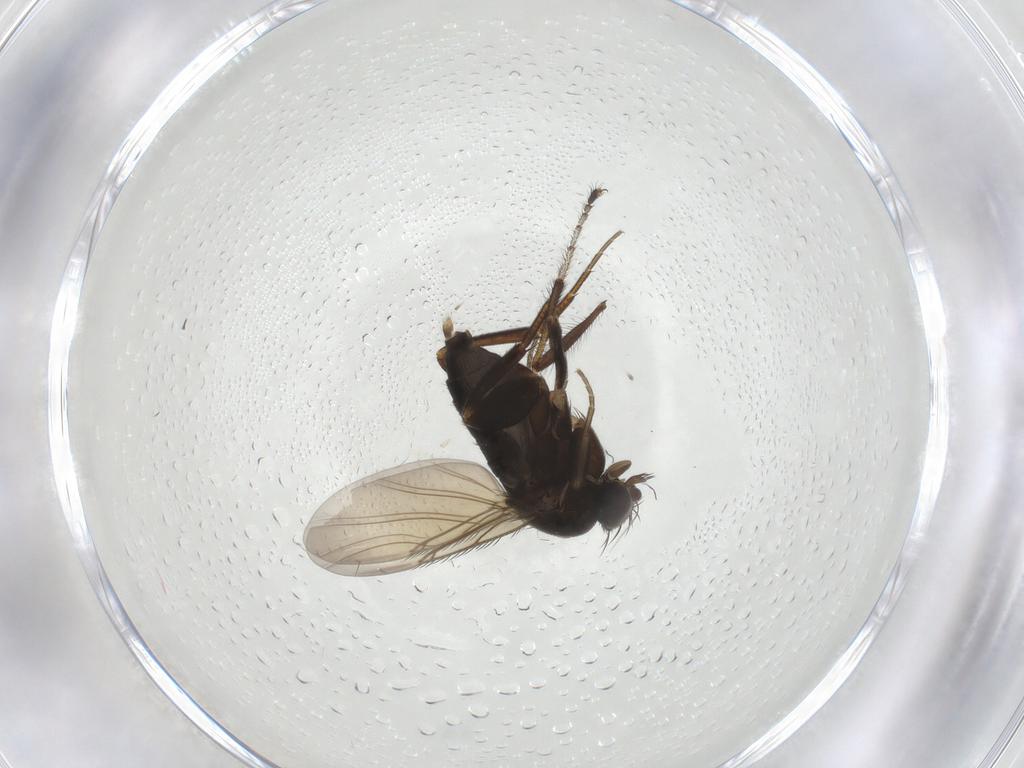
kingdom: Animalia
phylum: Arthropoda
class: Insecta
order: Diptera
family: Phoridae
